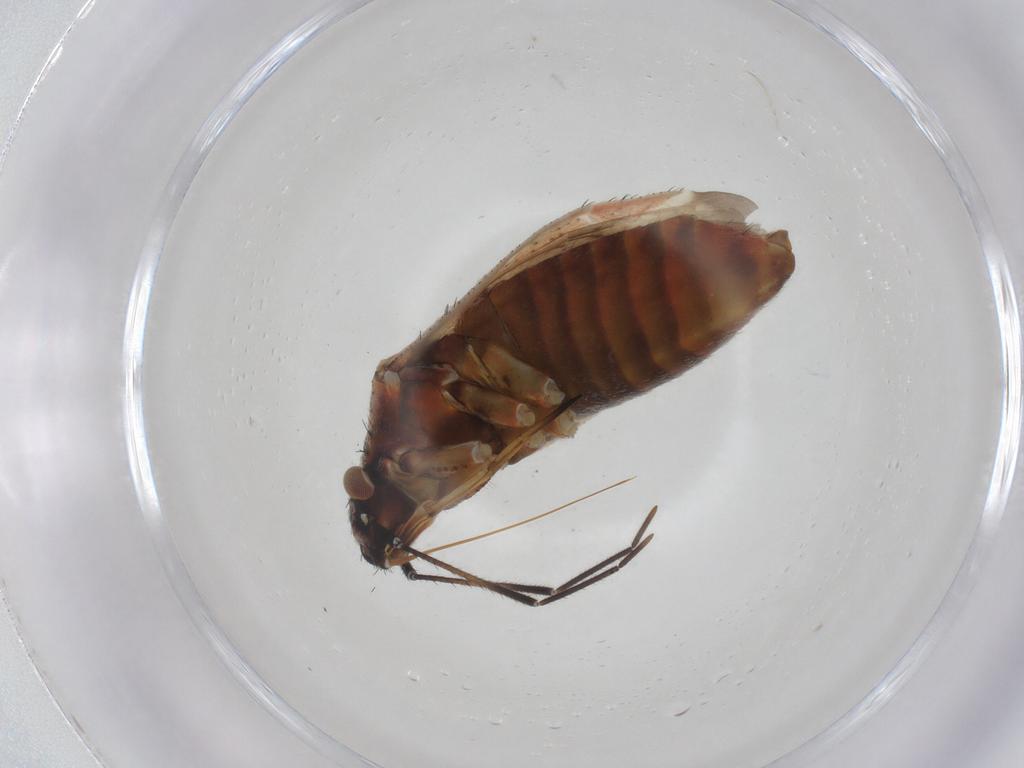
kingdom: Animalia
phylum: Arthropoda
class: Insecta
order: Hemiptera
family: Miridae
